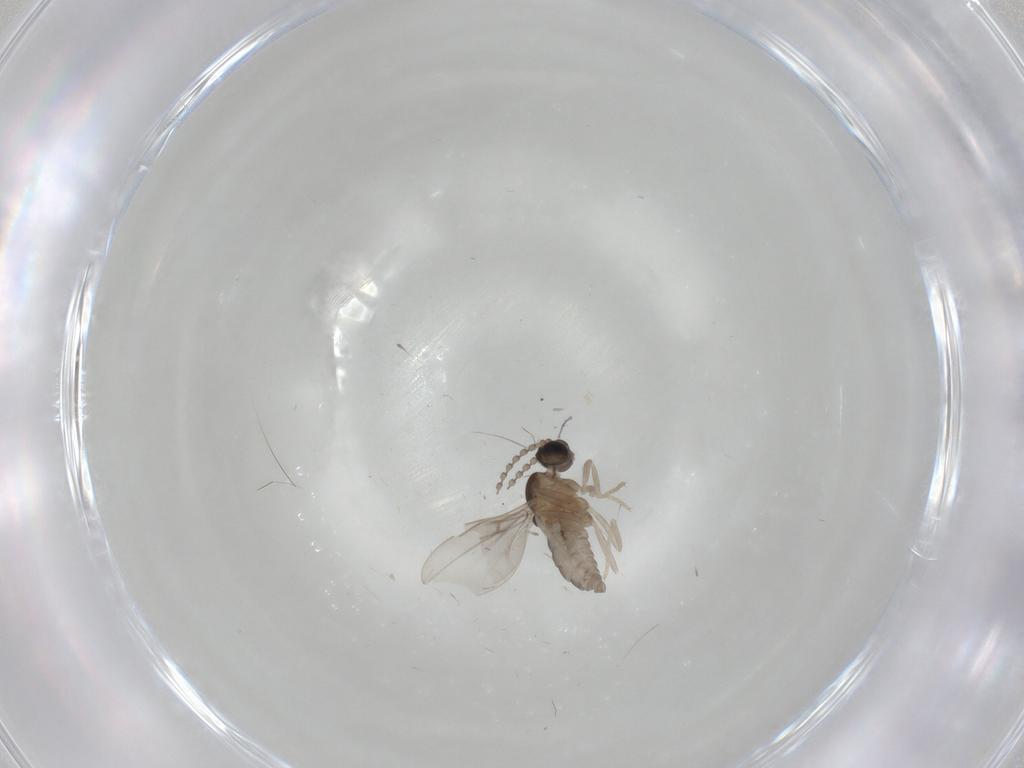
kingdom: Animalia
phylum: Arthropoda
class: Insecta
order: Diptera
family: Cecidomyiidae
